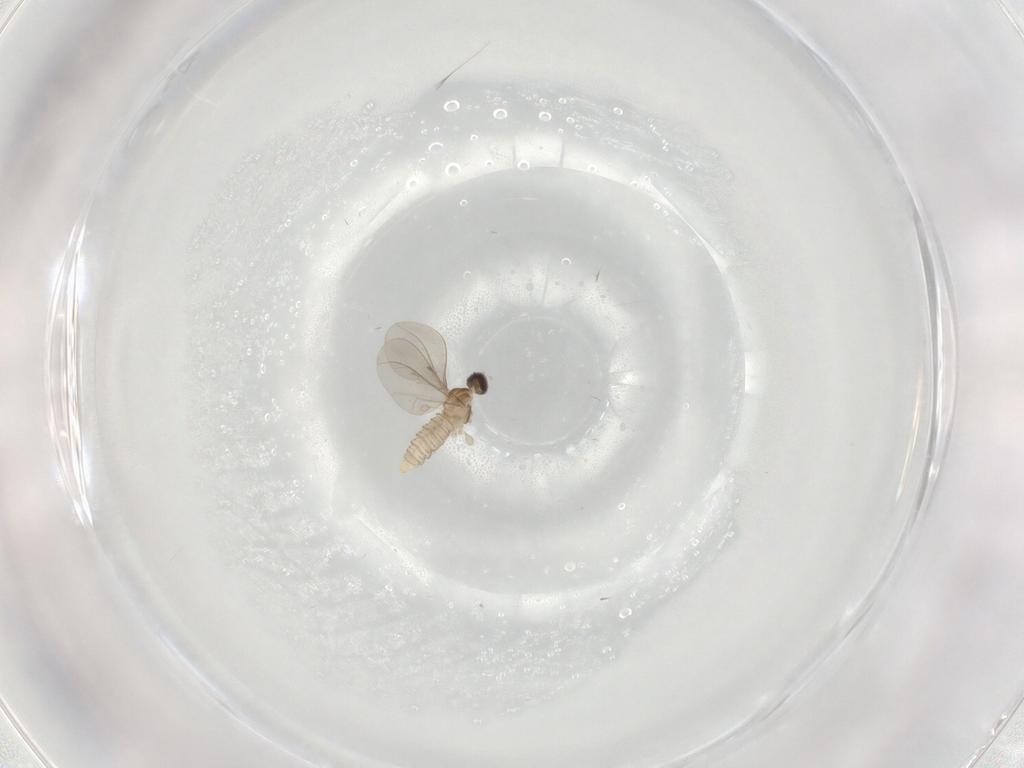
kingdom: Animalia
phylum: Arthropoda
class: Insecta
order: Diptera
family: Cecidomyiidae
